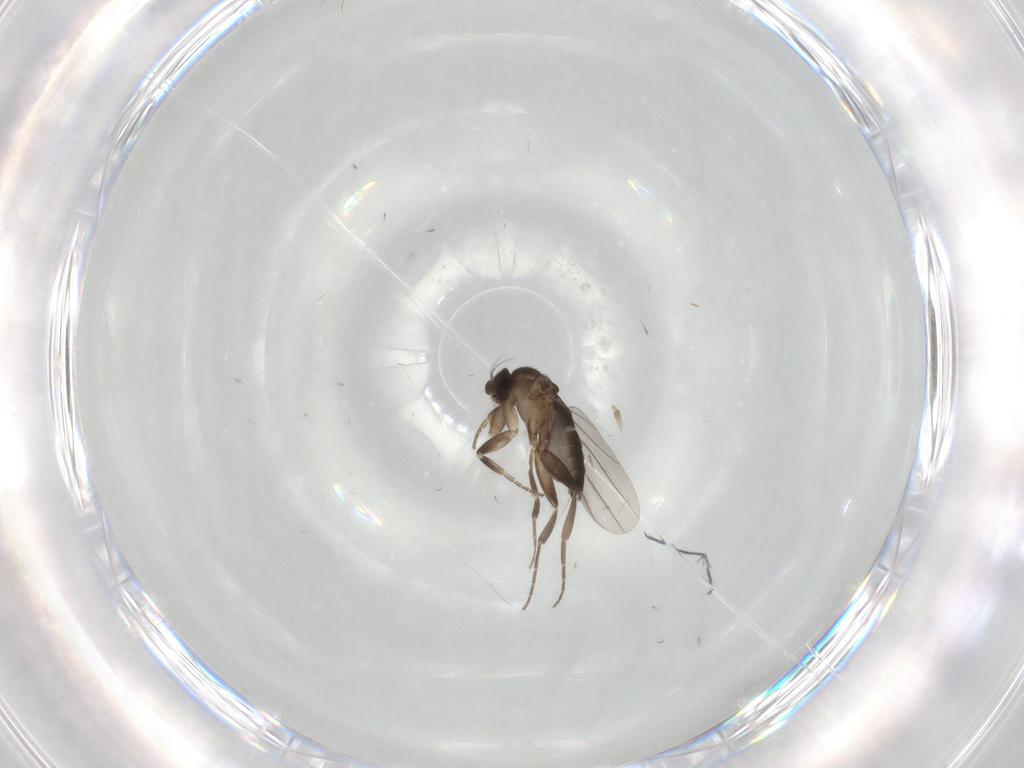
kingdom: Animalia
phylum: Arthropoda
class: Insecta
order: Diptera
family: Phoridae
